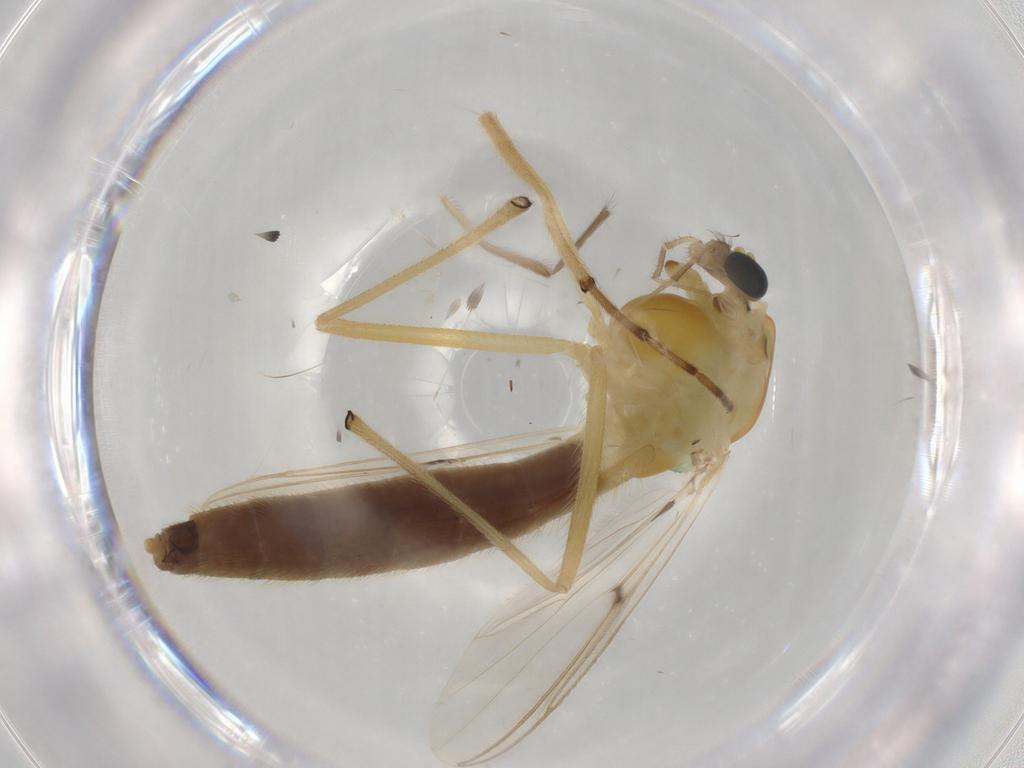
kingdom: Animalia
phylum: Arthropoda
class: Insecta
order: Diptera
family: Chironomidae
